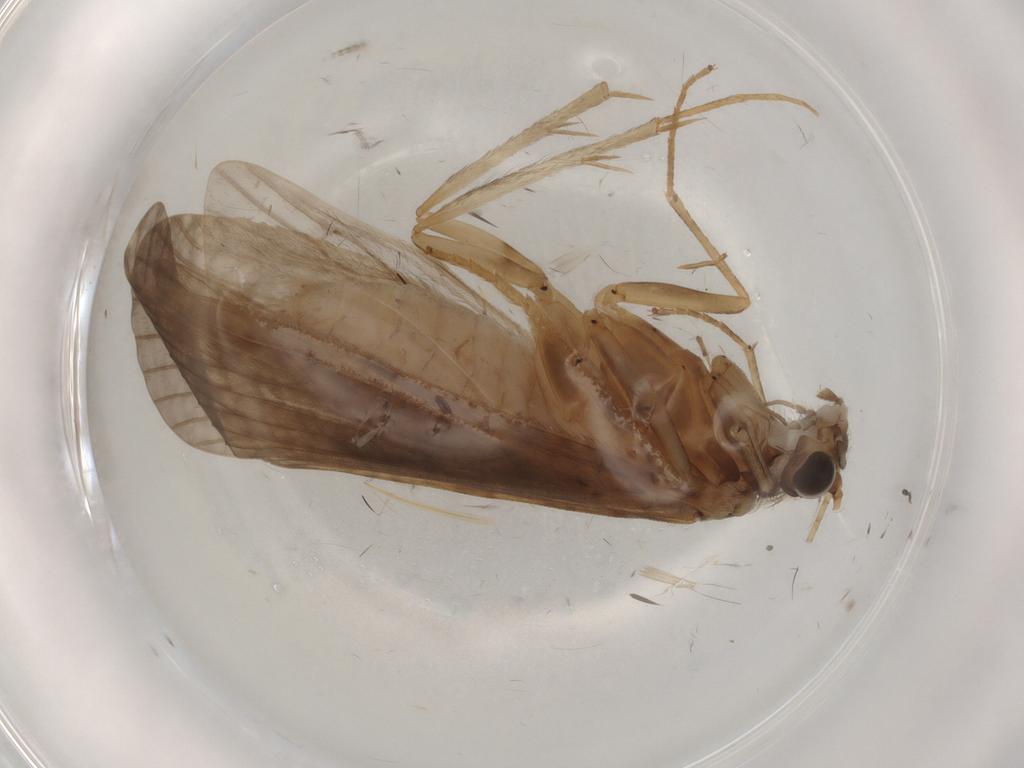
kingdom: Animalia
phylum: Arthropoda
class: Insecta
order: Trichoptera
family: Hydropsychidae
